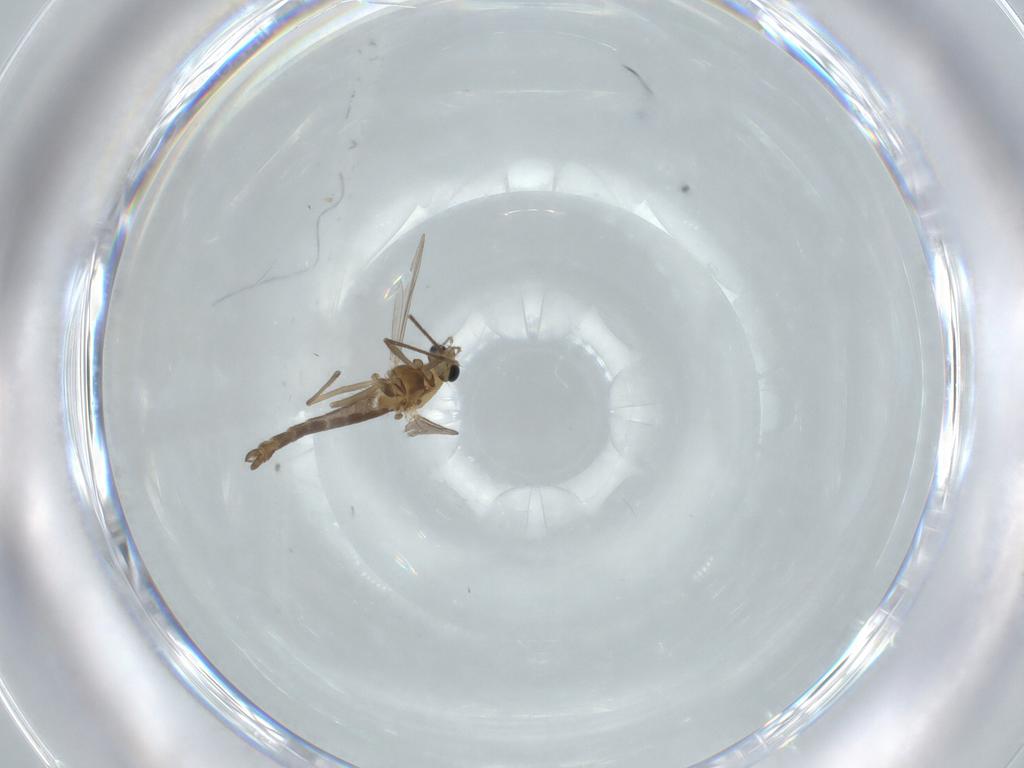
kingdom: Animalia
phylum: Arthropoda
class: Insecta
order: Diptera
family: Chironomidae
